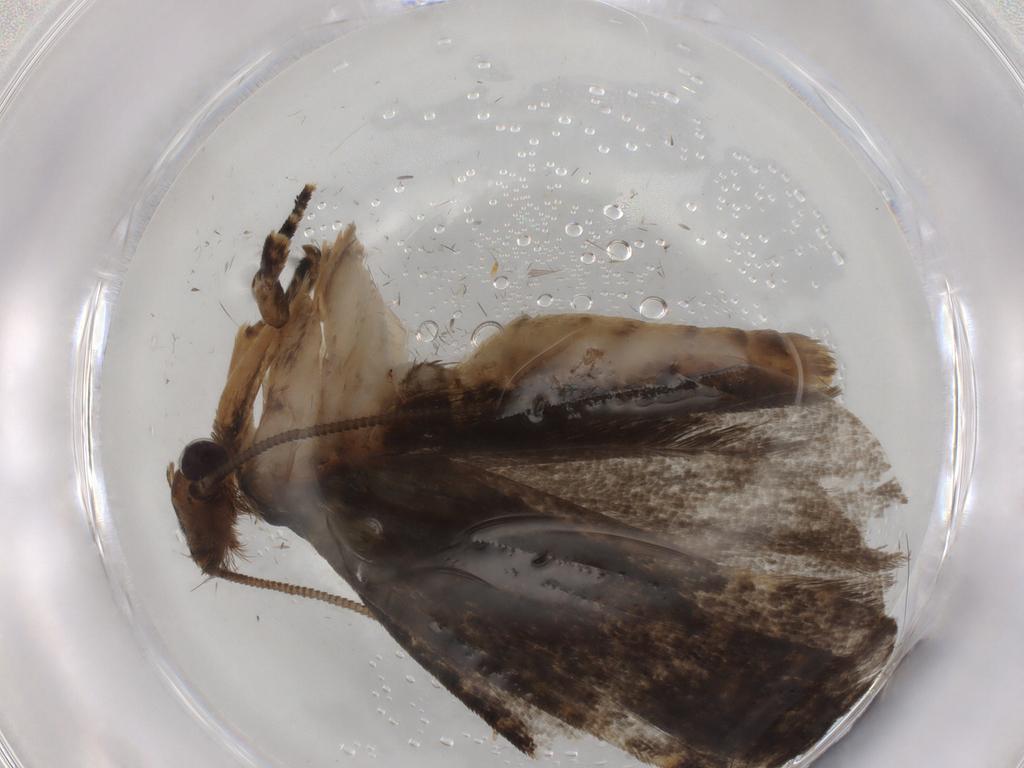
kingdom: Animalia
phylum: Arthropoda
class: Insecta
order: Lepidoptera
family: Tineidae
